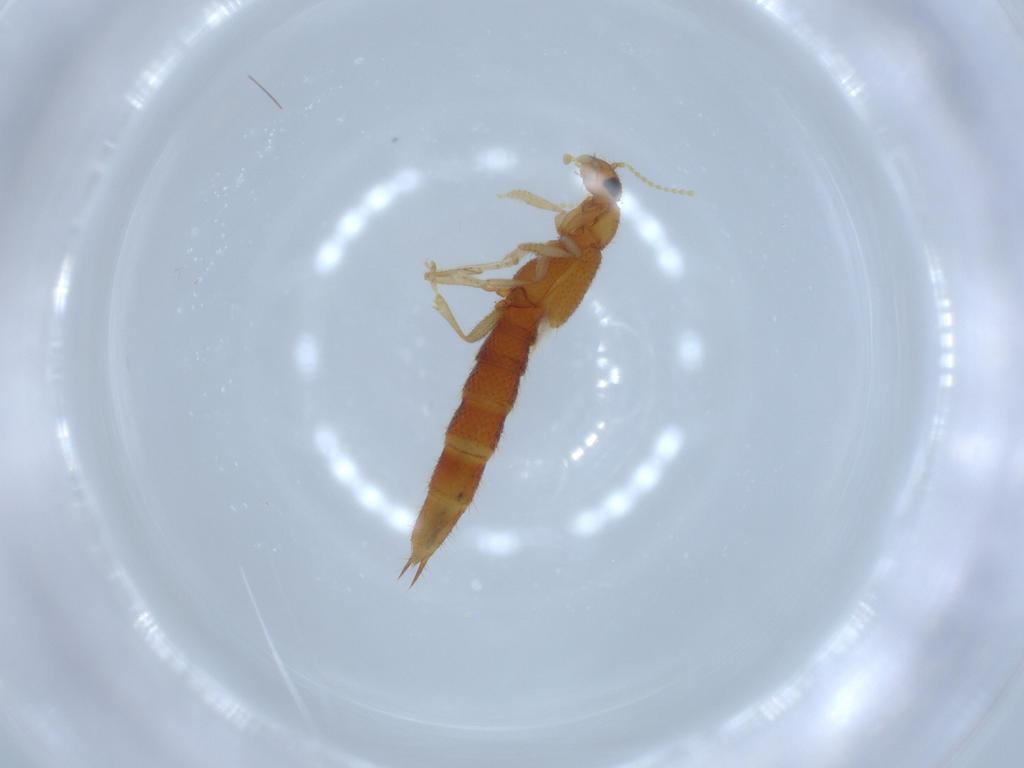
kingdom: Animalia
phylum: Arthropoda
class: Insecta
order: Coleoptera
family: Staphylinidae
